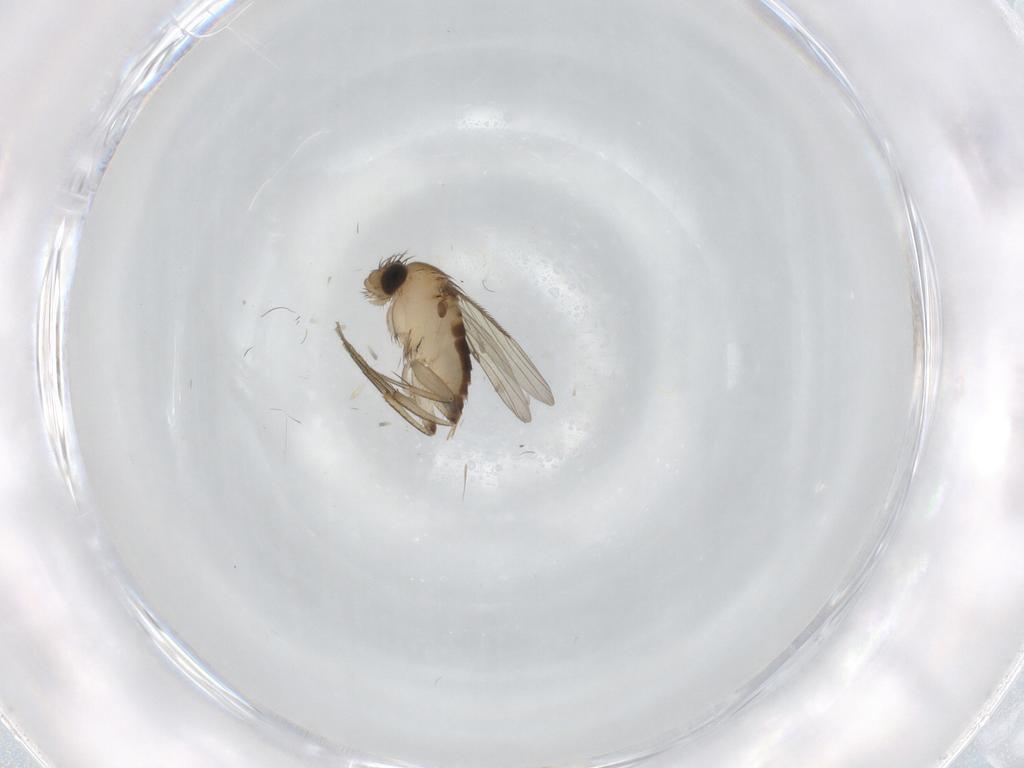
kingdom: Animalia
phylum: Arthropoda
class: Insecta
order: Diptera
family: Phoridae
